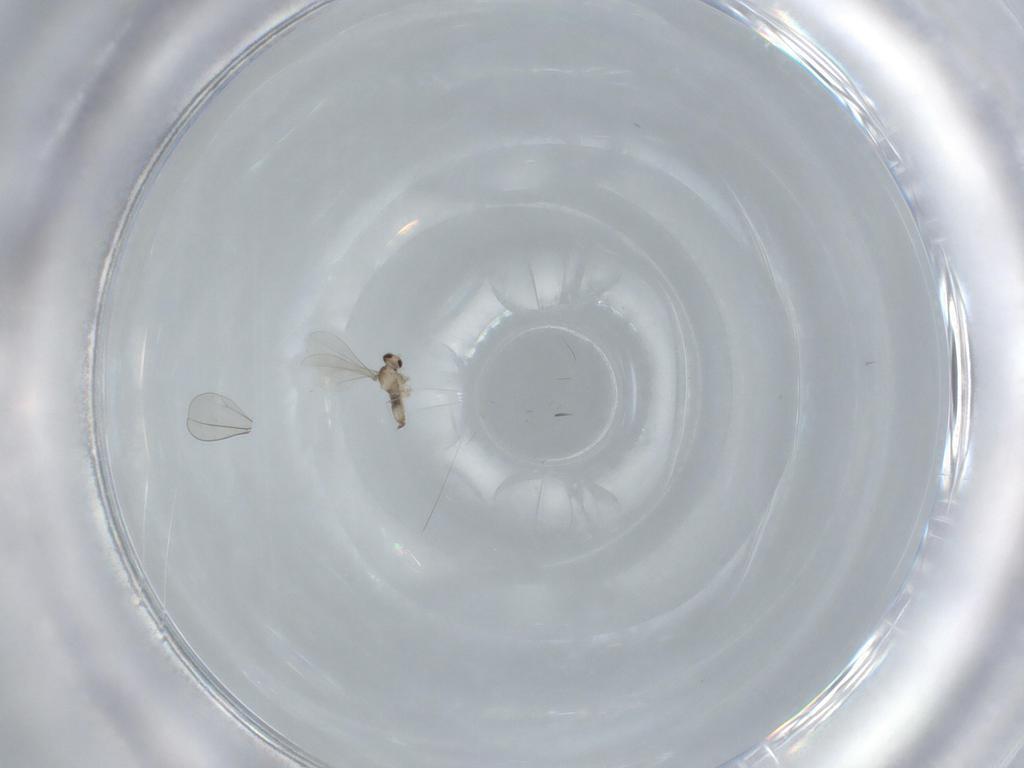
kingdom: Animalia
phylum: Arthropoda
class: Insecta
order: Diptera
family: Cecidomyiidae
